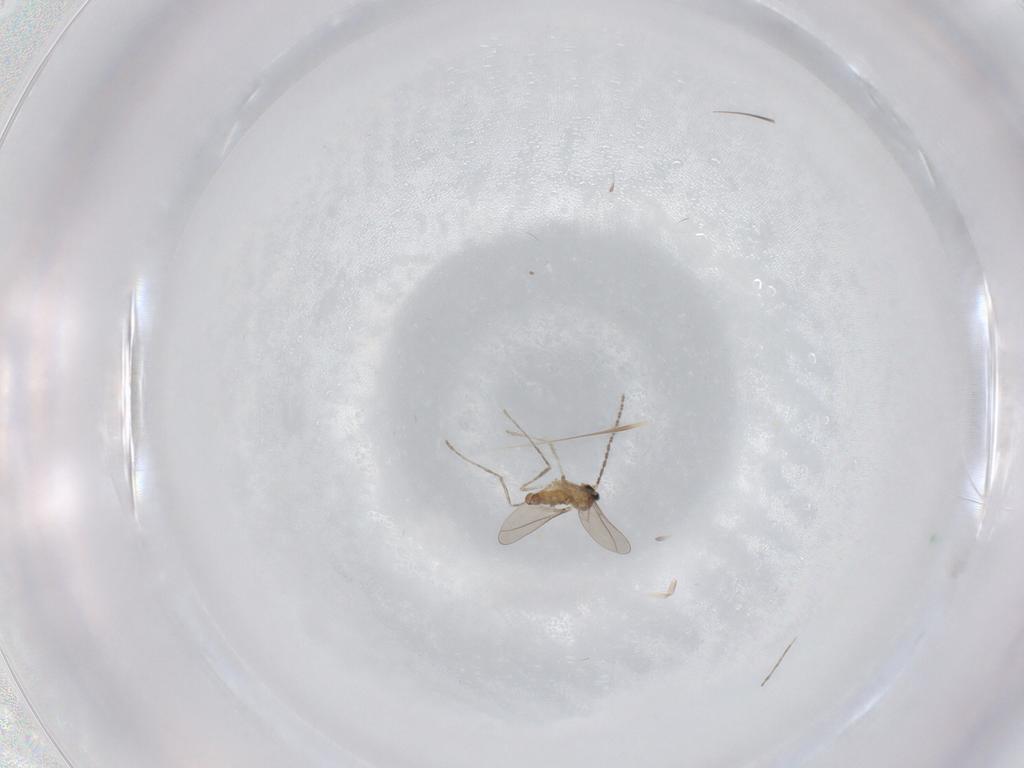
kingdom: Animalia
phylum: Arthropoda
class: Insecta
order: Diptera
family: Cecidomyiidae
